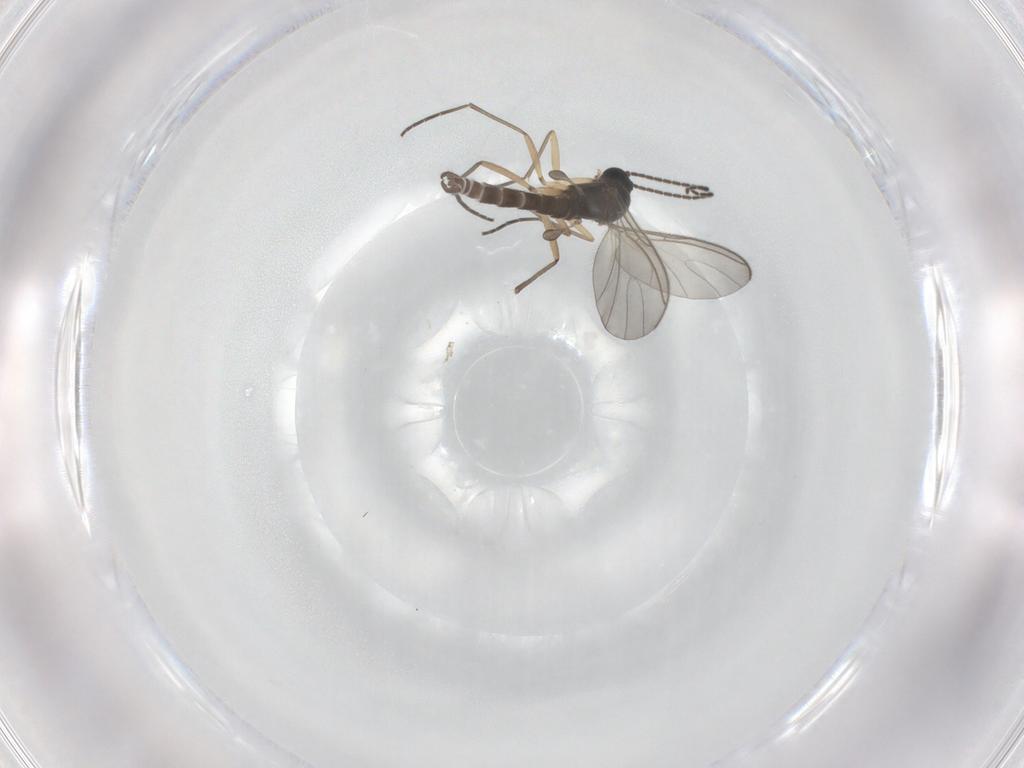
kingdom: Animalia
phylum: Arthropoda
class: Insecta
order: Diptera
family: Sciaridae
